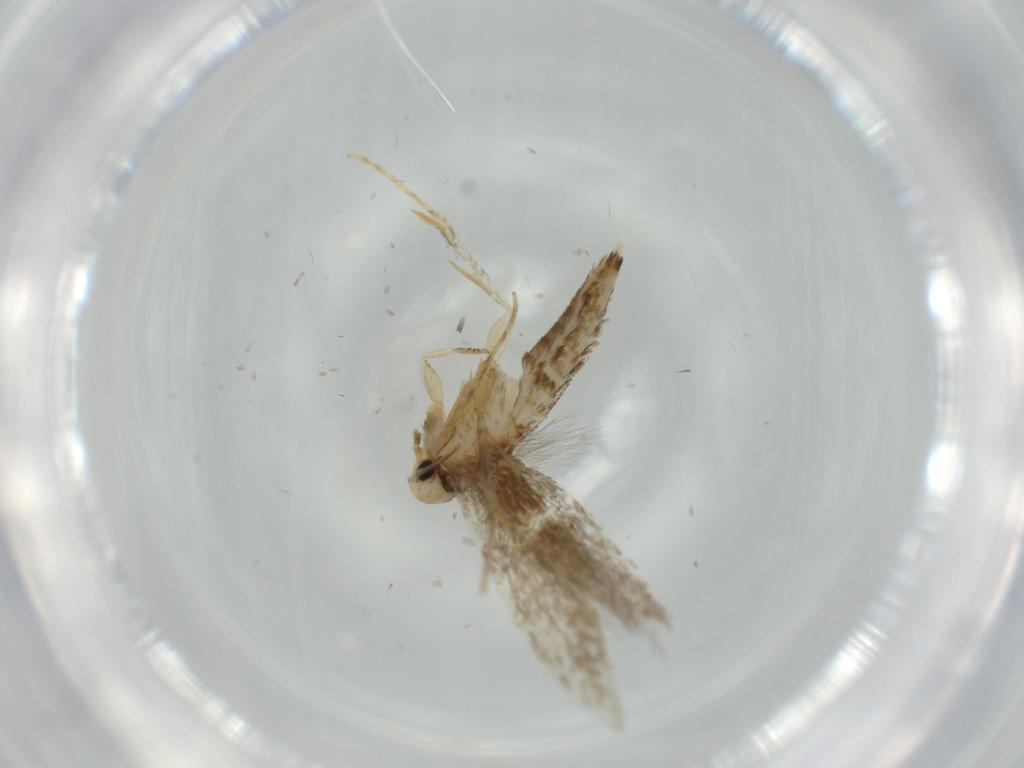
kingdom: Animalia
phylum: Arthropoda
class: Insecta
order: Lepidoptera
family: Tineidae
